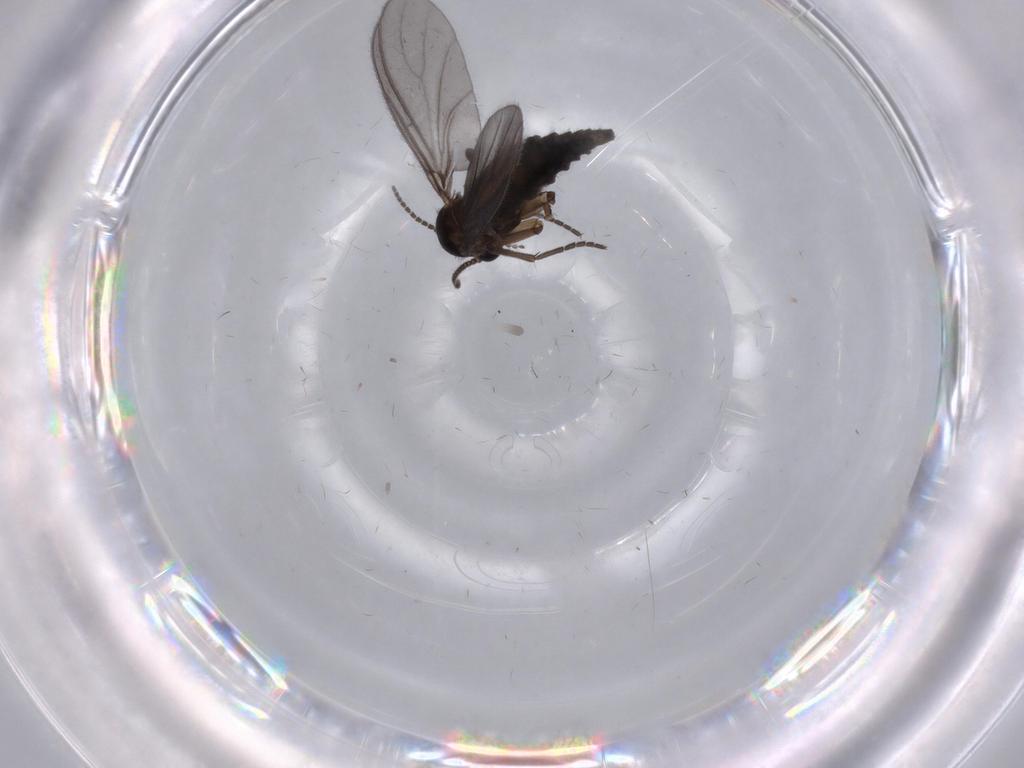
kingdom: Animalia
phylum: Arthropoda
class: Insecta
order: Diptera
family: Sciaridae
